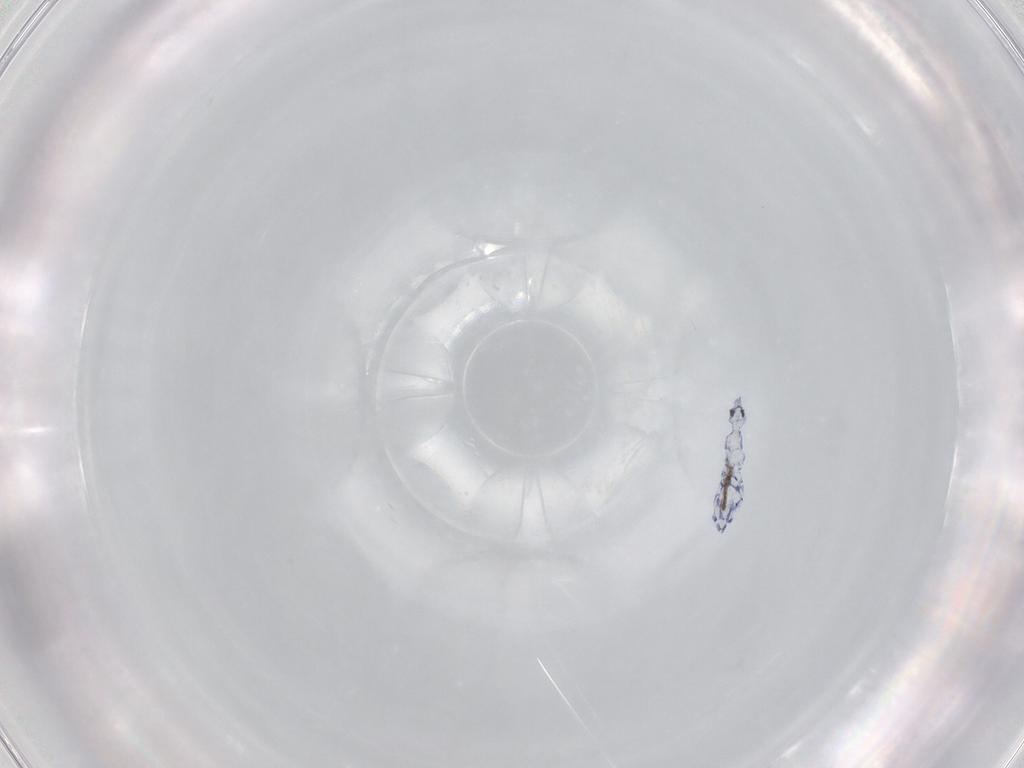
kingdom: Animalia
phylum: Arthropoda
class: Collembola
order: Entomobryomorpha
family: Entomobryidae
